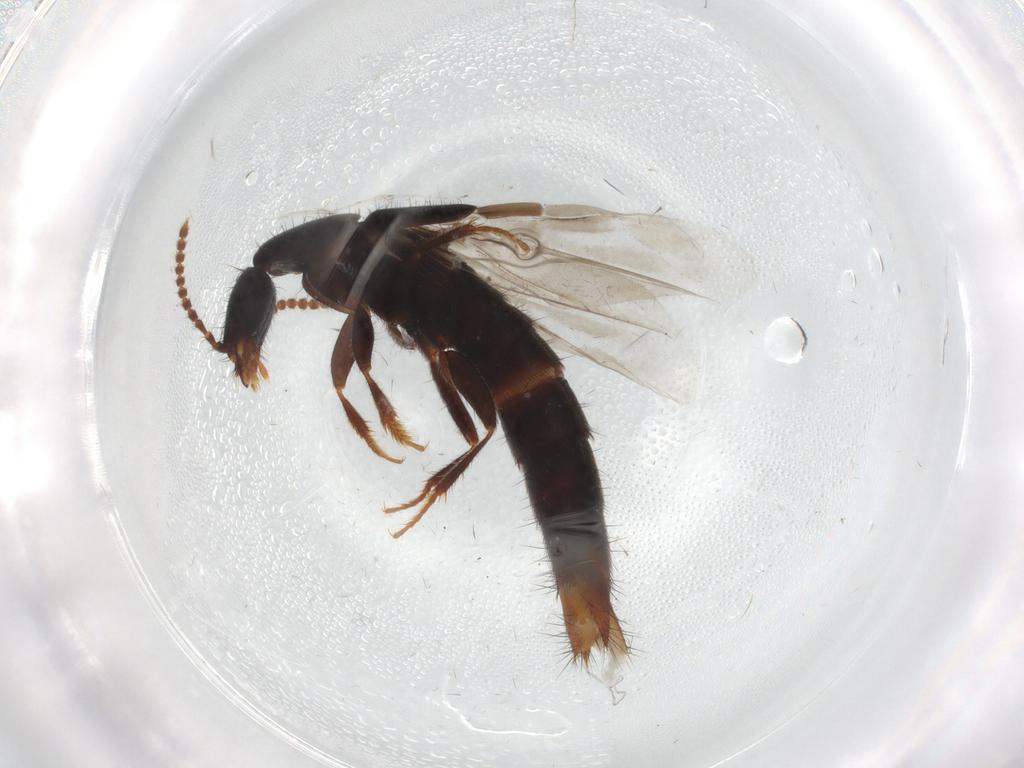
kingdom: Animalia
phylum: Arthropoda
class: Insecta
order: Coleoptera
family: Staphylinidae
